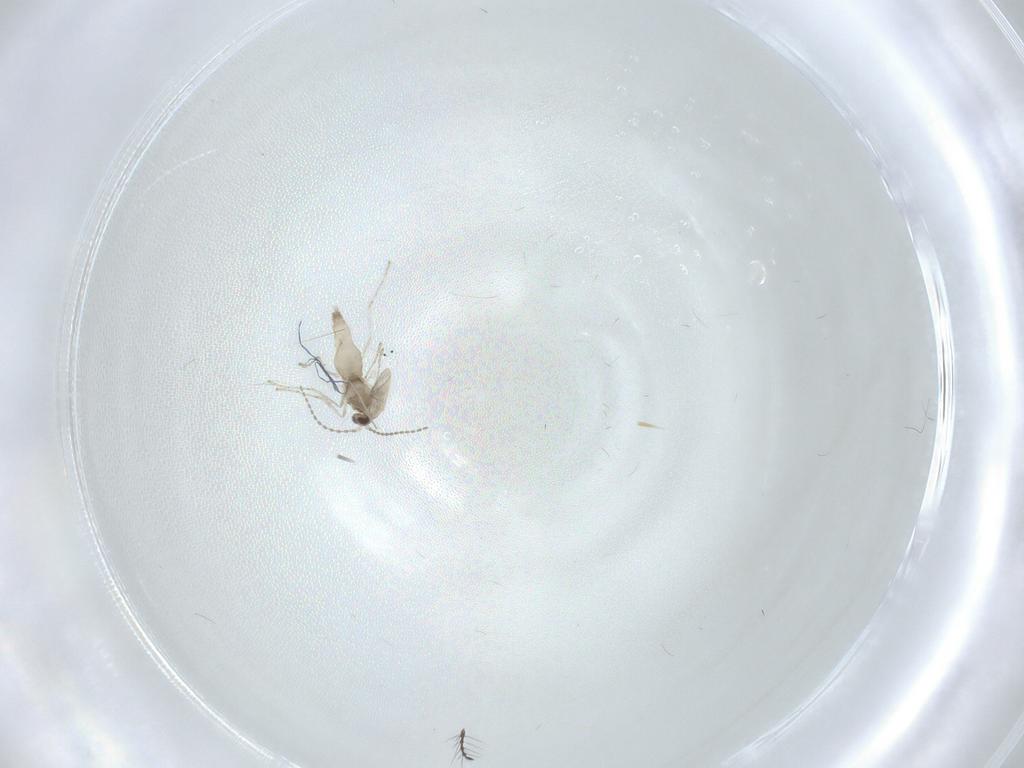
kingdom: Animalia
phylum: Arthropoda
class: Insecta
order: Diptera
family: Cecidomyiidae
